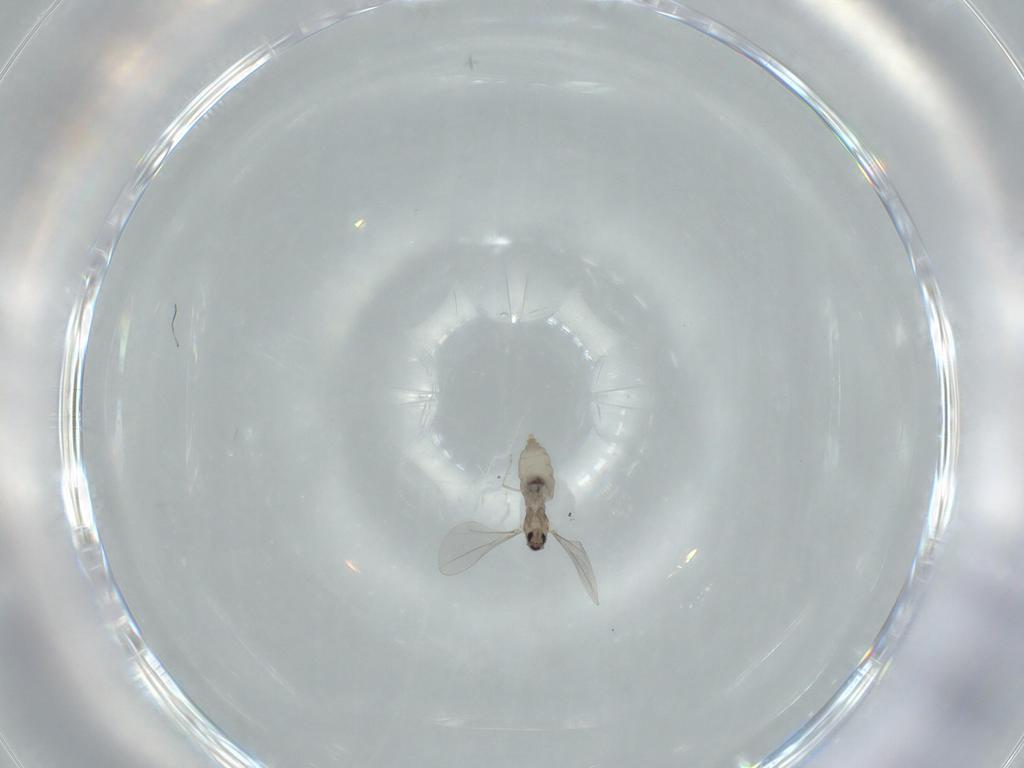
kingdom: Animalia
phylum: Arthropoda
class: Insecta
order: Diptera
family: Cecidomyiidae
